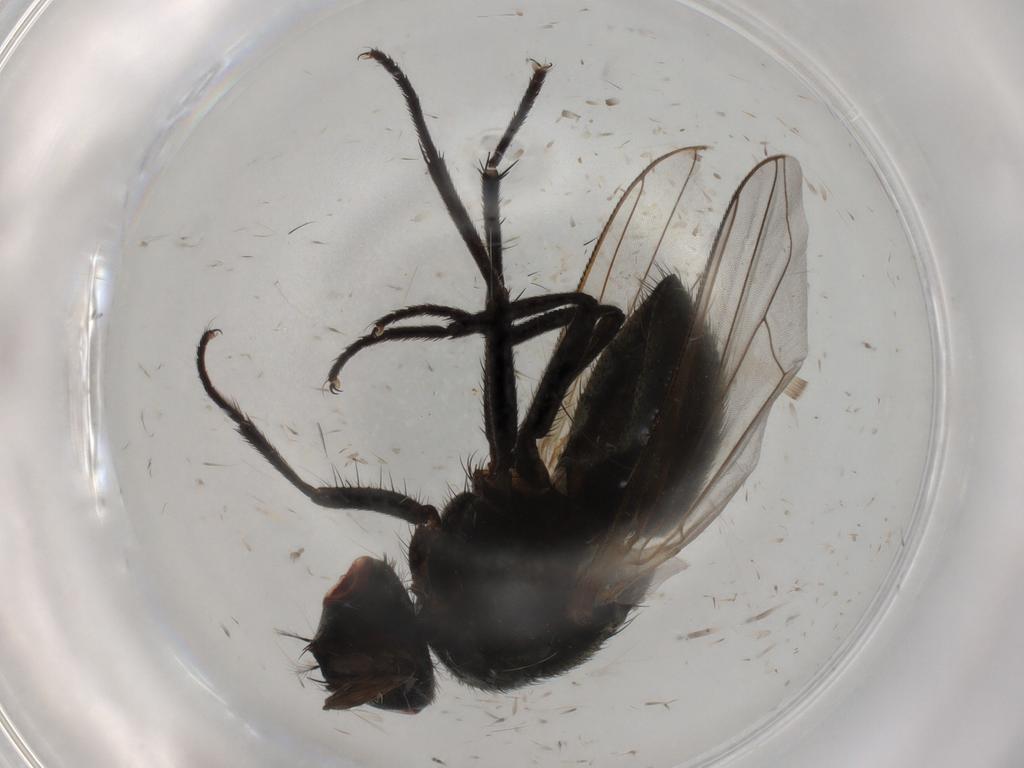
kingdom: Animalia
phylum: Arthropoda
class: Insecta
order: Diptera
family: Cecidomyiidae
